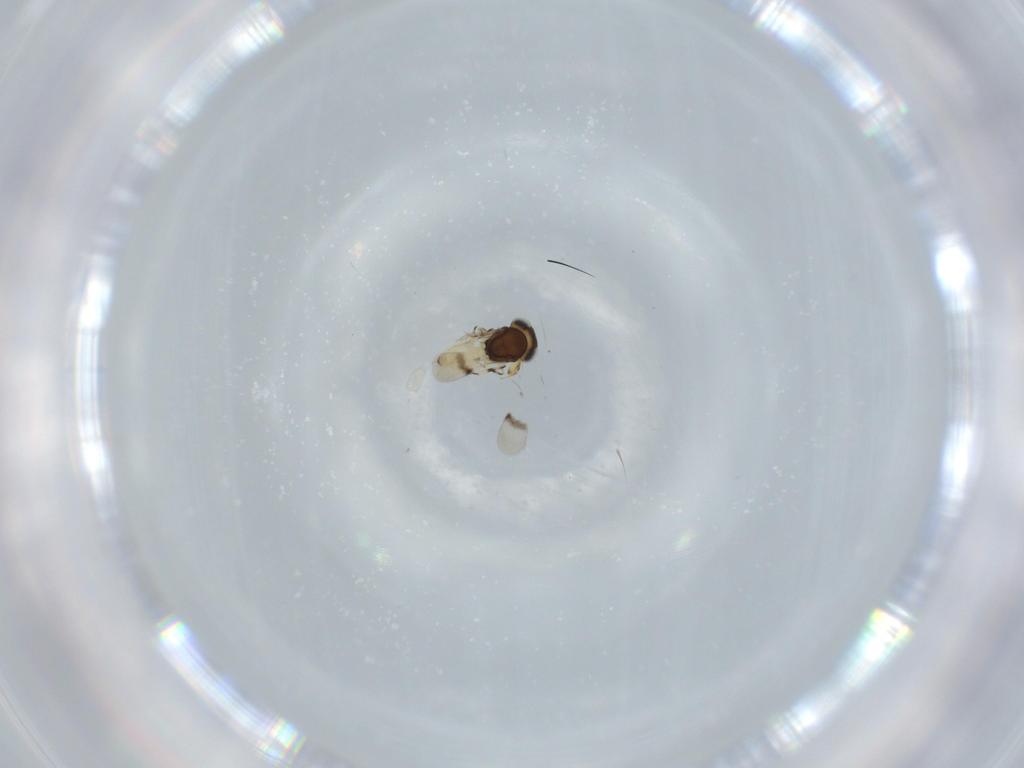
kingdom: Animalia
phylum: Arthropoda
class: Insecta
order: Hymenoptera
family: Scelionidae
